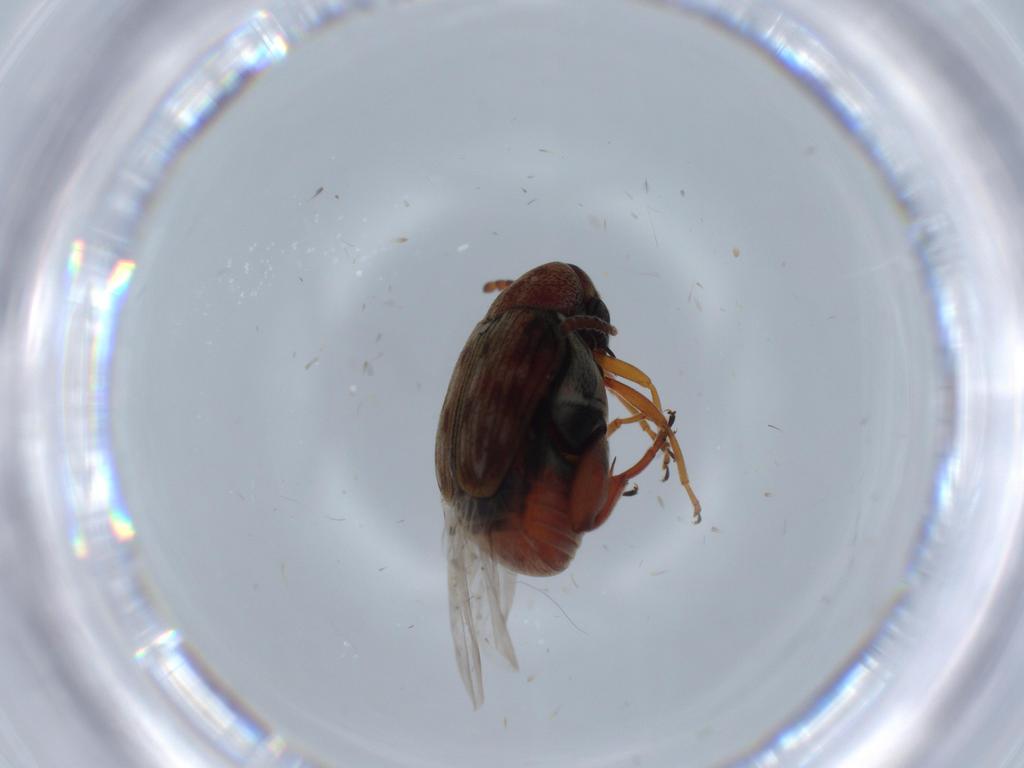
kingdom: Animalia
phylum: Arthropoda
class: Insecta
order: Coleoptera
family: Chrysomelidae
